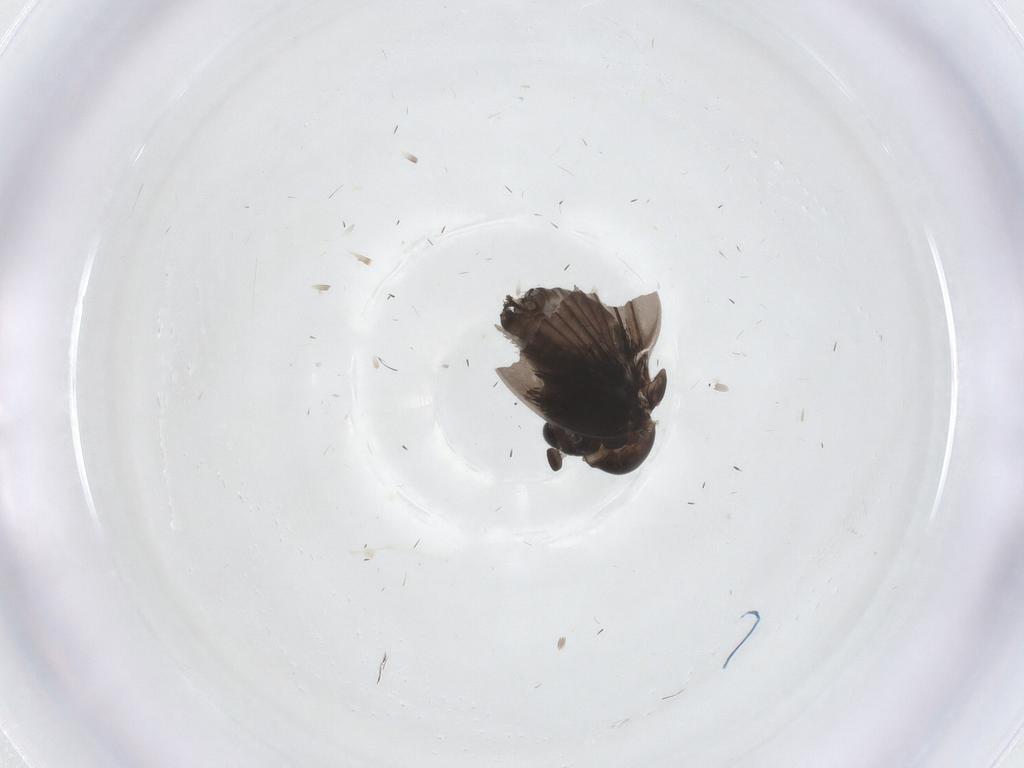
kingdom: Animalia
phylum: Arthropoda
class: Insecta
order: Diptera
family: Psychodidae
